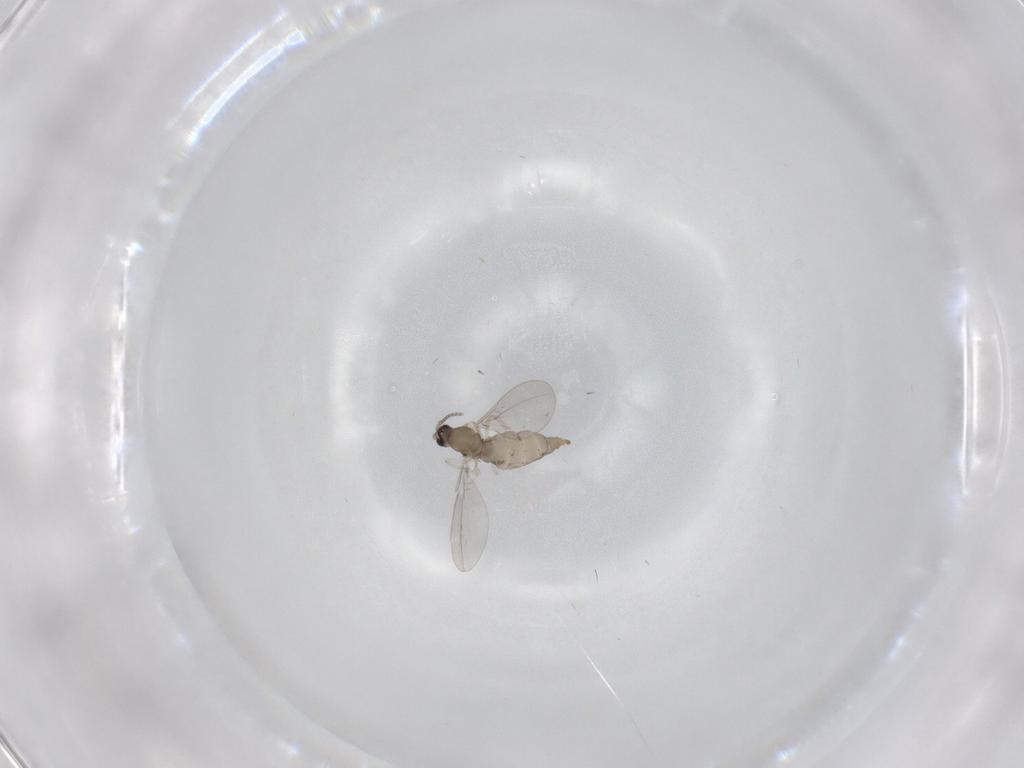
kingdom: Animalia
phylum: Arthropoda
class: Insecta
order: Diptera
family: Cecidomyiidae
